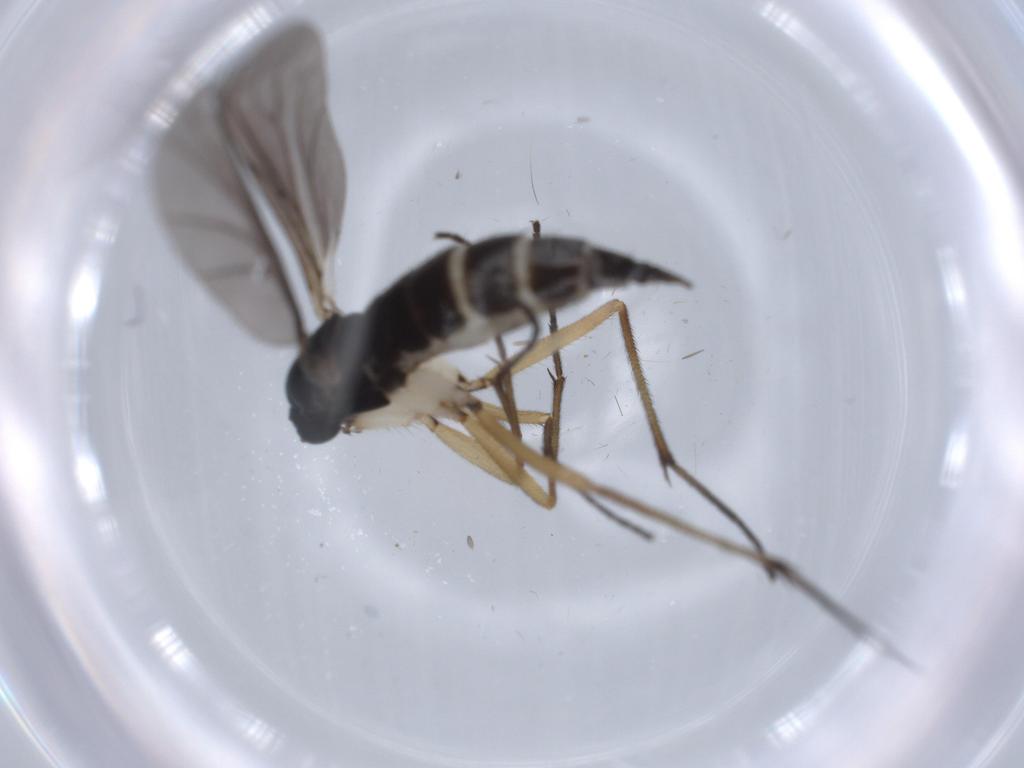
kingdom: Animalia
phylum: Arthropoda
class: Insecta
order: Diptera
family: Sciaridae
